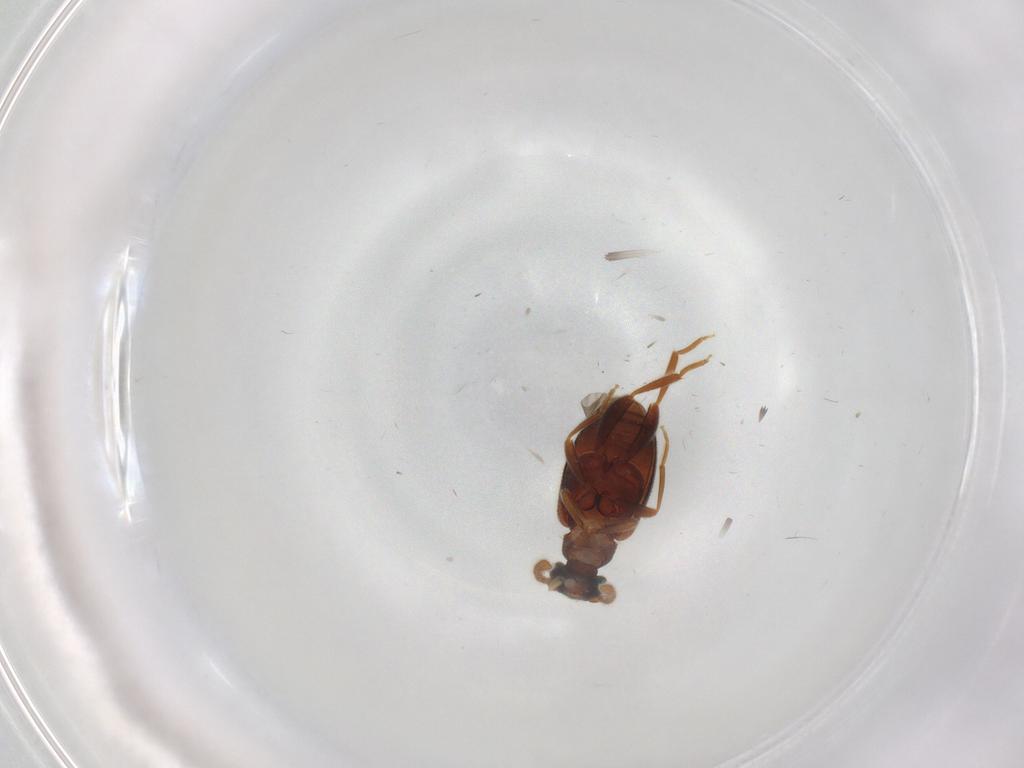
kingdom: Animalia
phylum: Arthropoda
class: Insecta
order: Coleoptera
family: Aderidae
